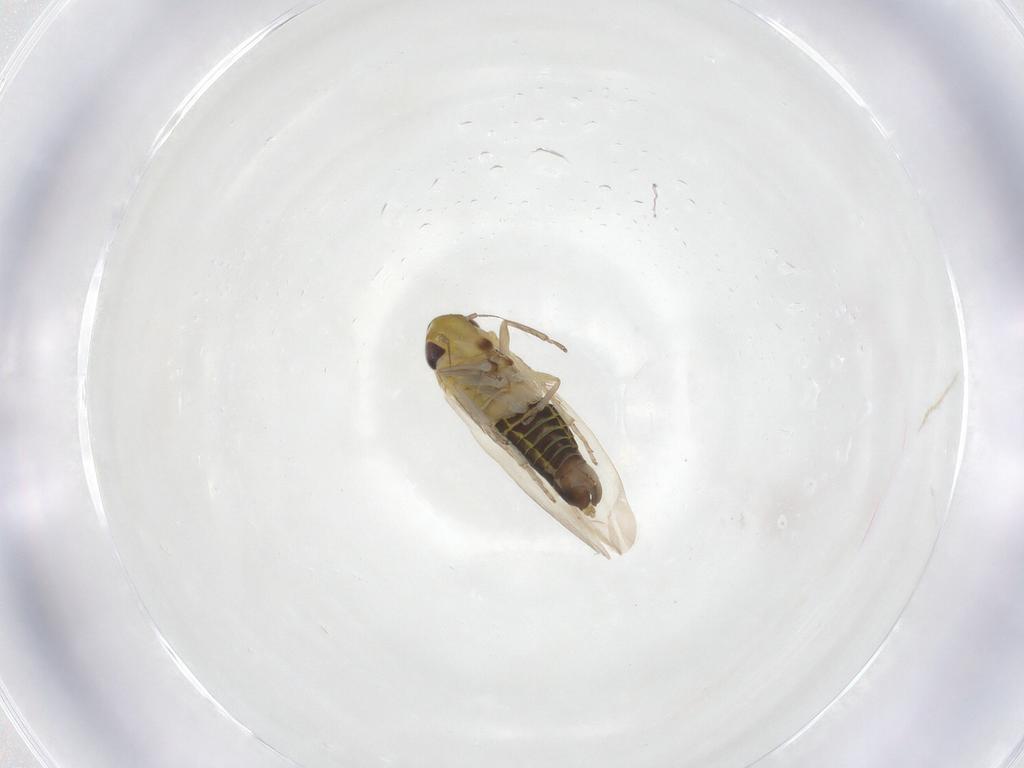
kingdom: Animalia
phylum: Arthropoda
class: Insecta
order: Hemiptera
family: Cicadellidae
